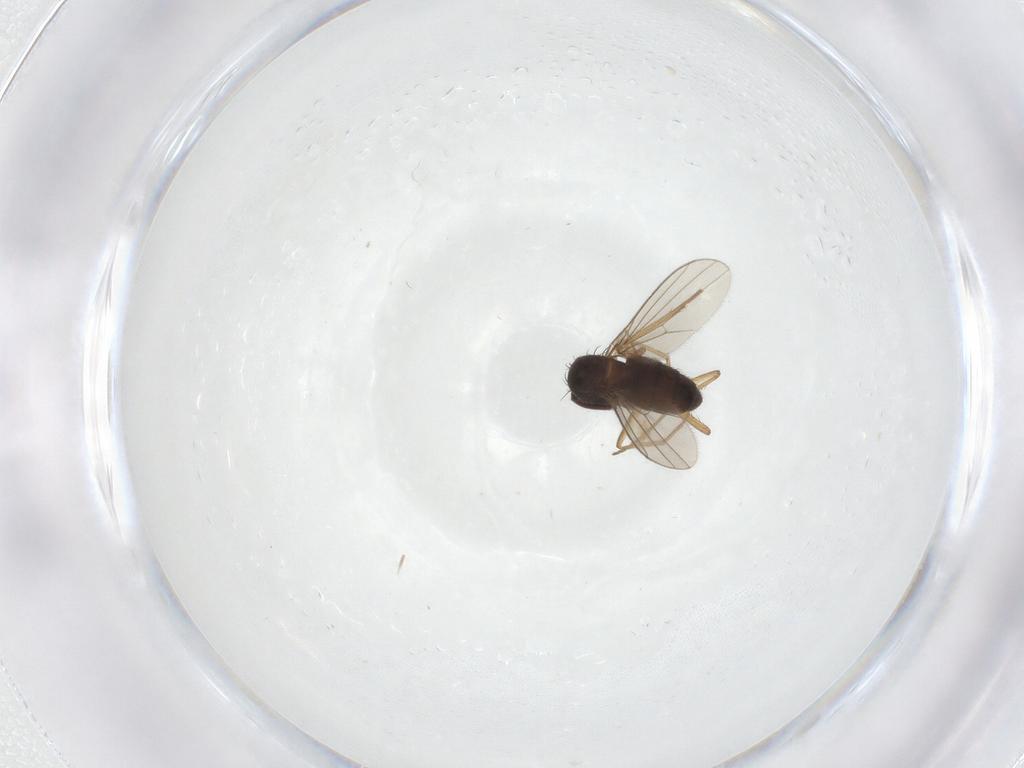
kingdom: Animalia
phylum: Arthropoda
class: Insecta
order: Diptera
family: Dolichopodidae
